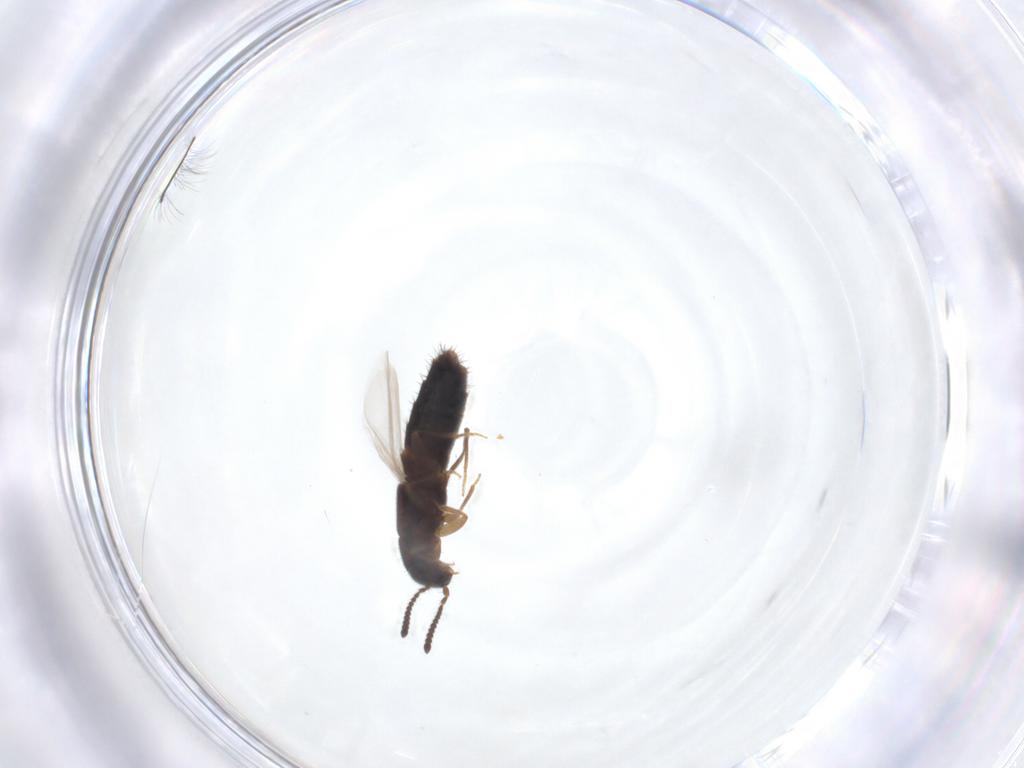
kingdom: Animalia
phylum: Arthropoda
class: Insecta
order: Coleoptera
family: Staphylinidae
